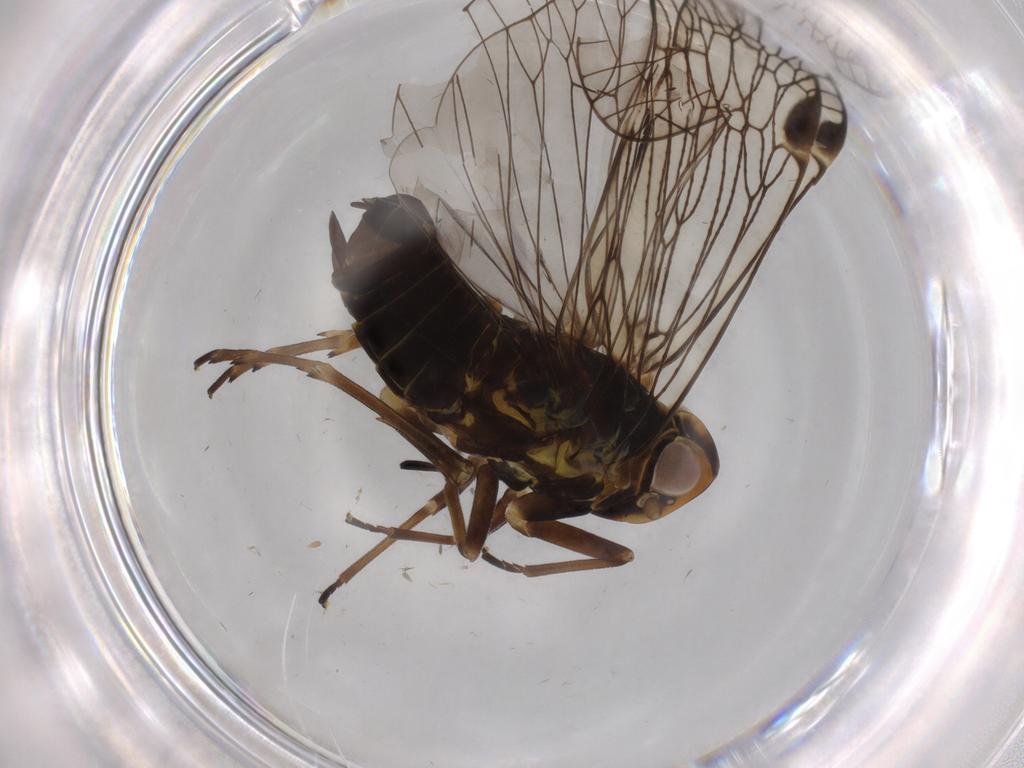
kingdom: Animalia
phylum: Arthropoda
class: Insecta
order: Hemiptera
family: Cixiidae
